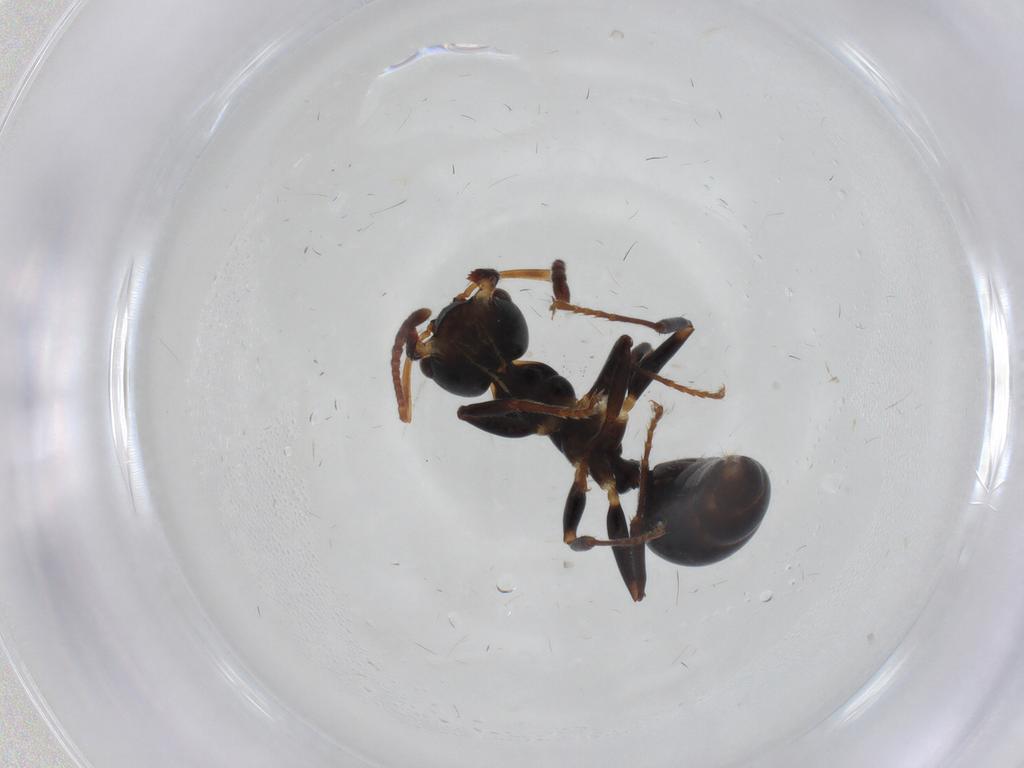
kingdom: Animalia
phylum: Arthropoda
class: Insecta
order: Hymenoptera
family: Formicidae
